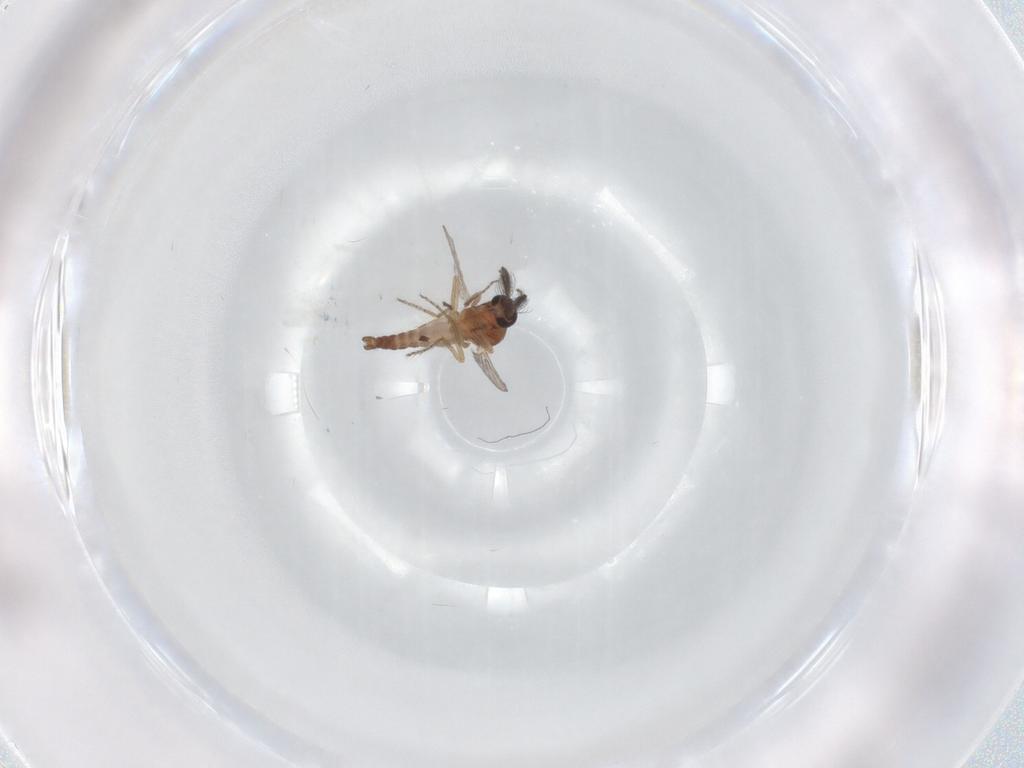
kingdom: Animalia
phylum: Arthropoda
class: Insecta
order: Diptera
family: Ceratopogonidae
